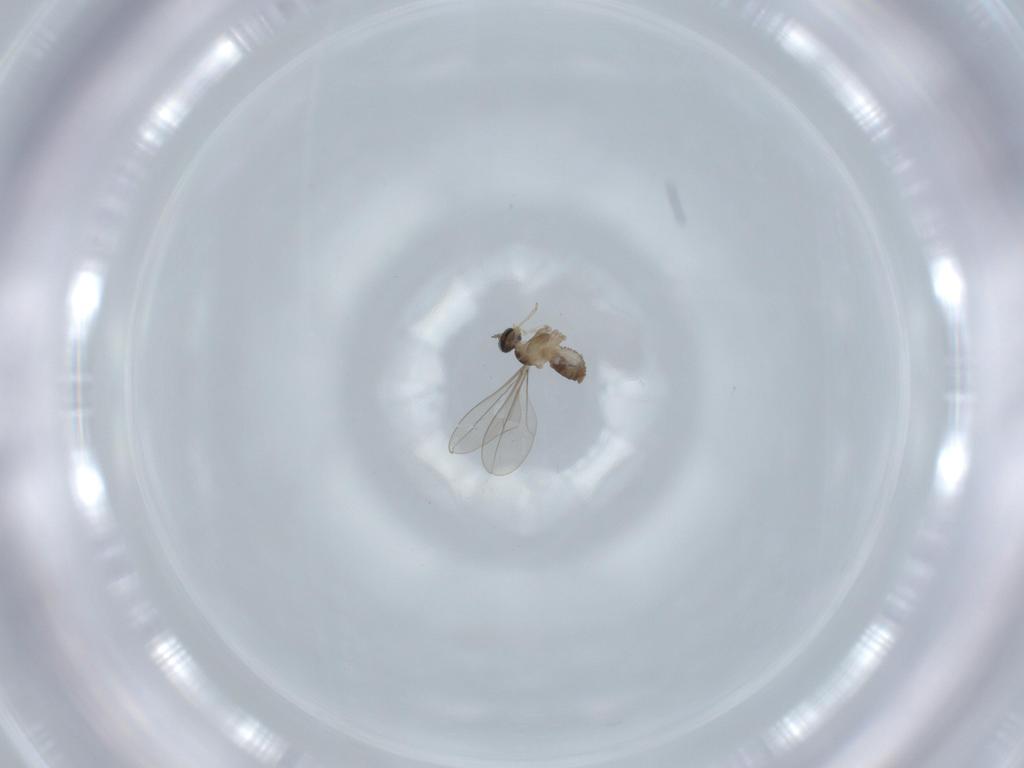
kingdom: Animalia
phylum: Arthropoda
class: Insecta
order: Diptera
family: Cecidomyiidae
